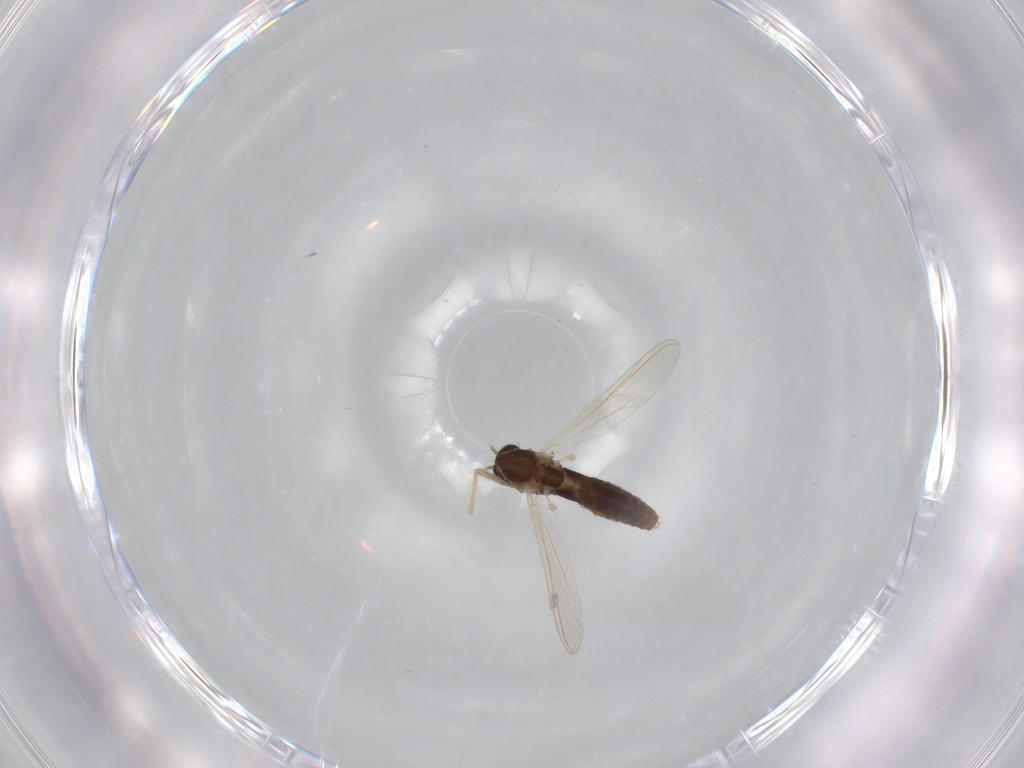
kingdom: Animalia
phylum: Arthropoda
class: Insecta
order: Diptera
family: Chironomidae
